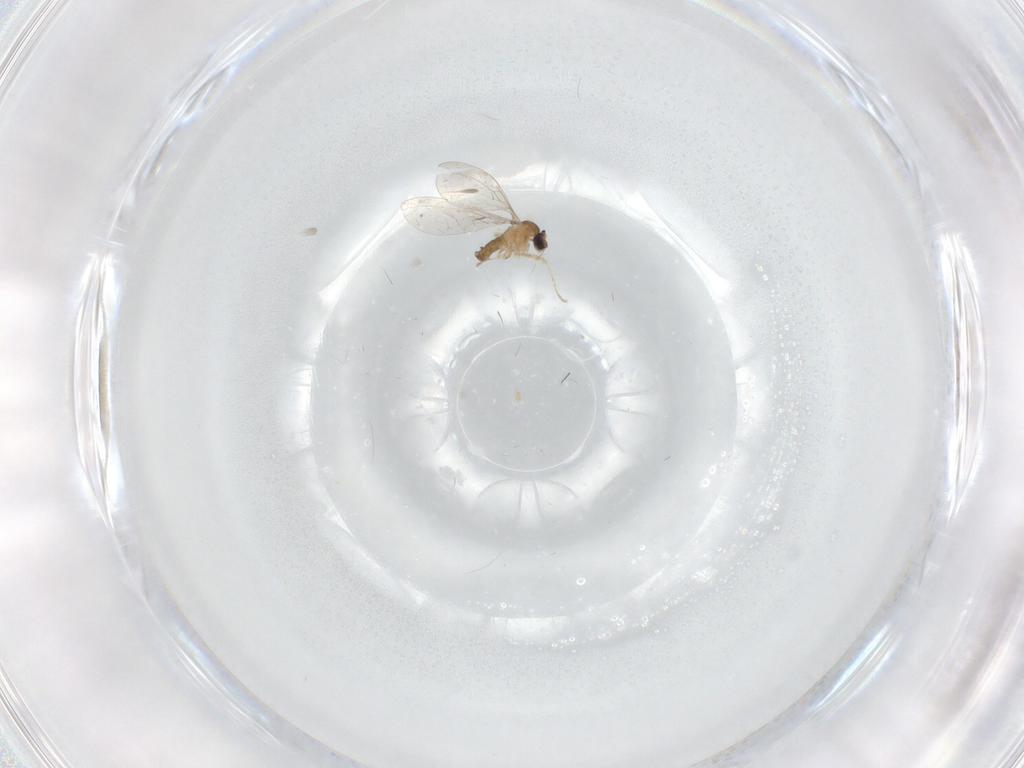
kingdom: Animalia
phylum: Arthropoda
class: Insecta
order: Diptera
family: Cecidomyiidae
